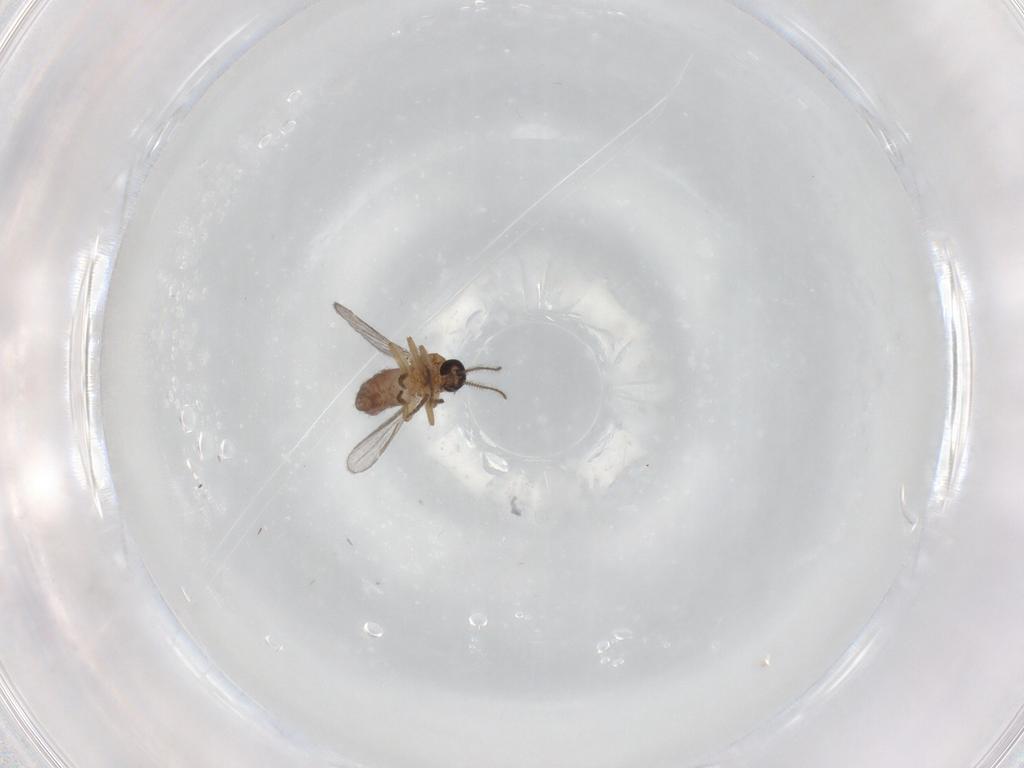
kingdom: Animalia
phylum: Arthropoda
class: Insecta
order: Diptera
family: Ceratopogonidae
